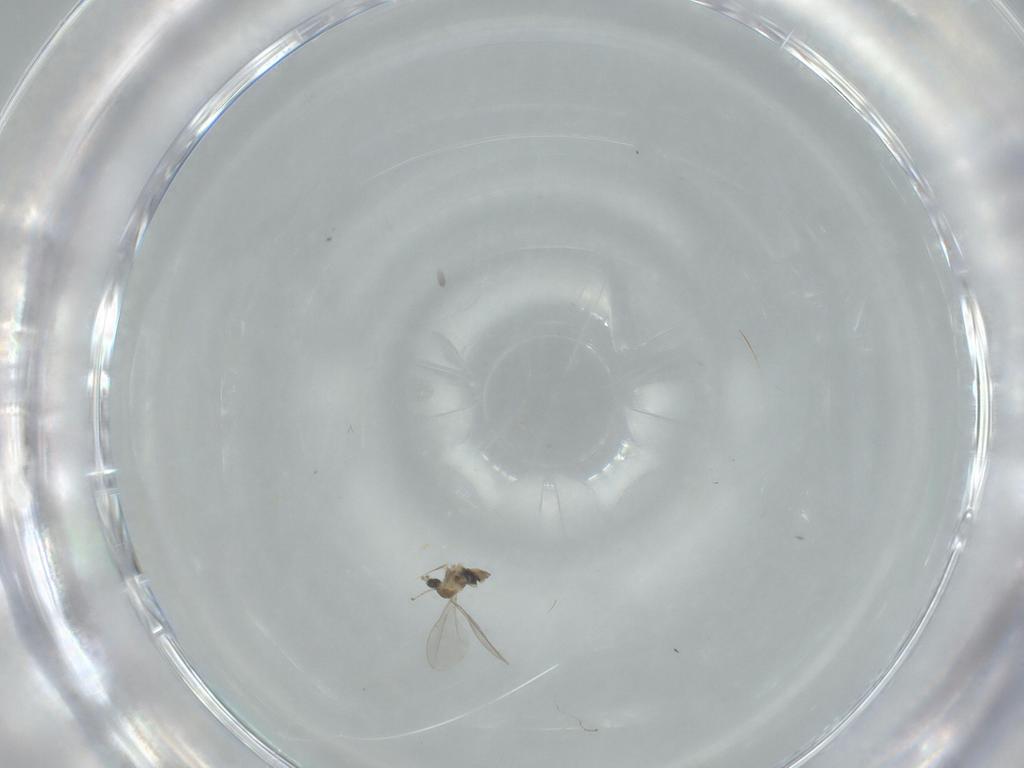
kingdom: Animalia
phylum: Arthropoda
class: Insecta
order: Diptera
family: Cecidomyiidae
